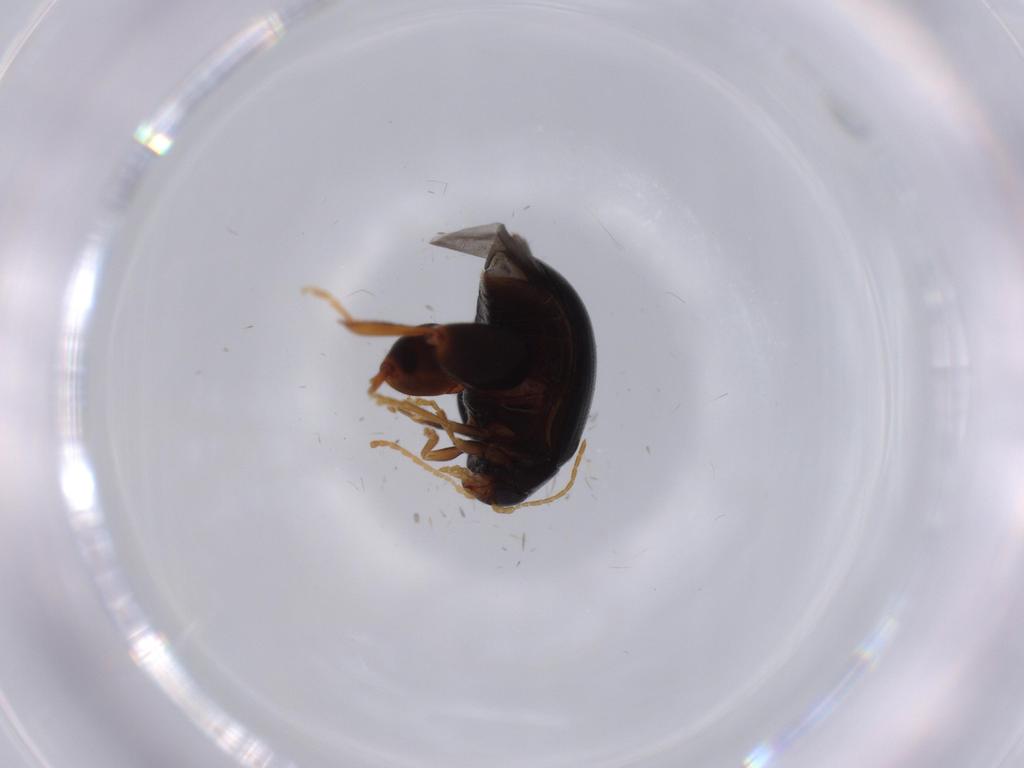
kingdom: Animalia
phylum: Arthropoda
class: Insecta
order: Coleoptera
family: Chrysomelidae
